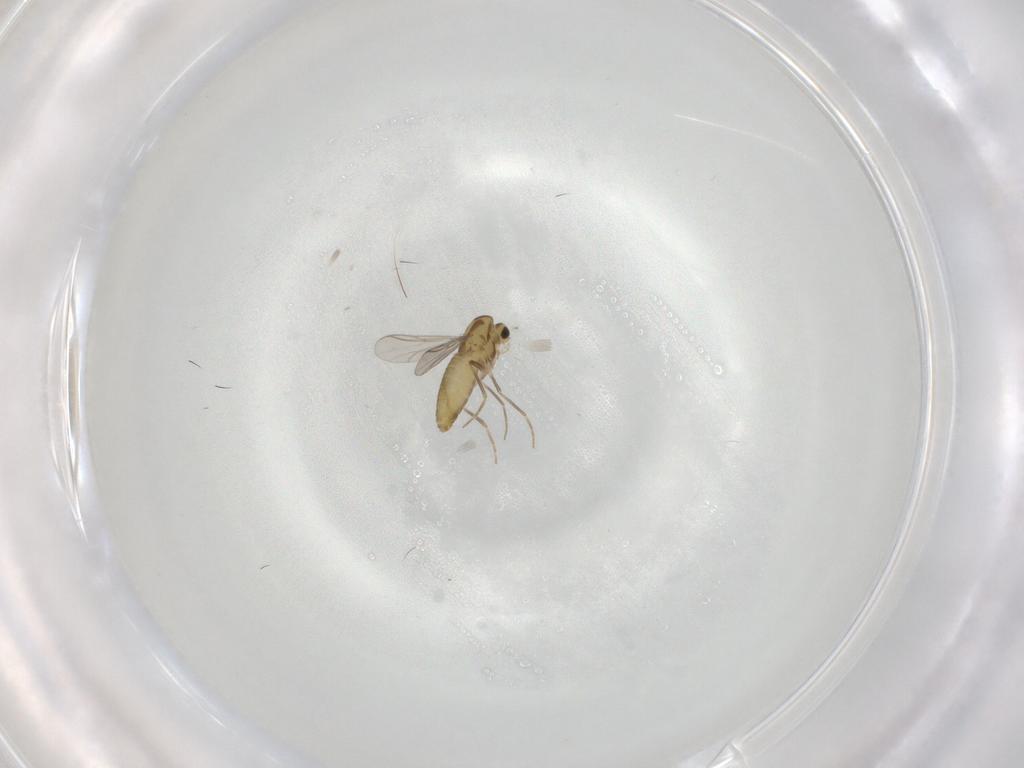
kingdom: Animalia
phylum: Arthropoda
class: Insecta
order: Diptera
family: Chironomidae
